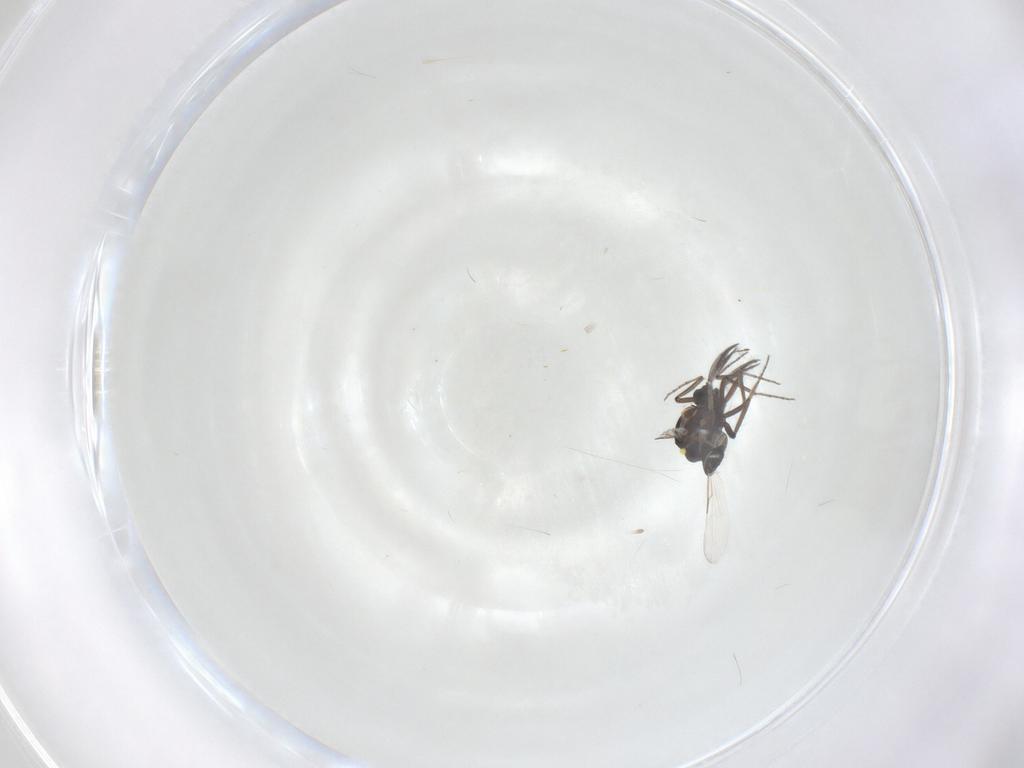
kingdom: Animalia
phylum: Arthropoda
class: Insecta
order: Diptera
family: Ceratopogonidae
